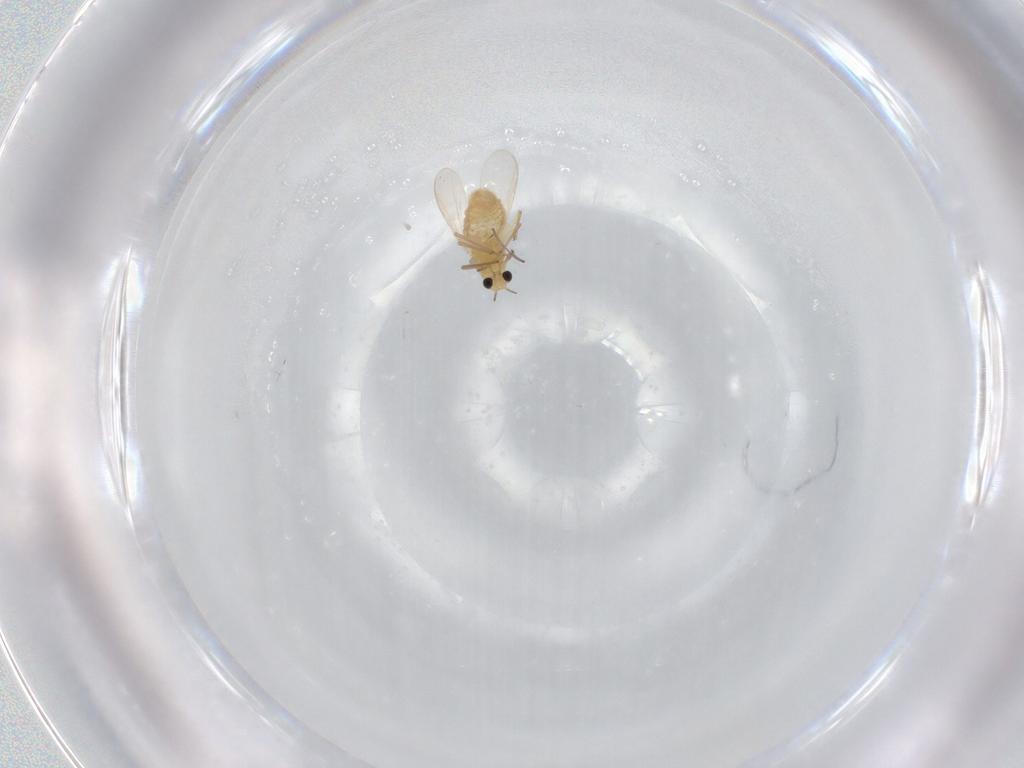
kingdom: Animalia
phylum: Arthropoda
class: Insecta
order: Diptera
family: Chironomidae
